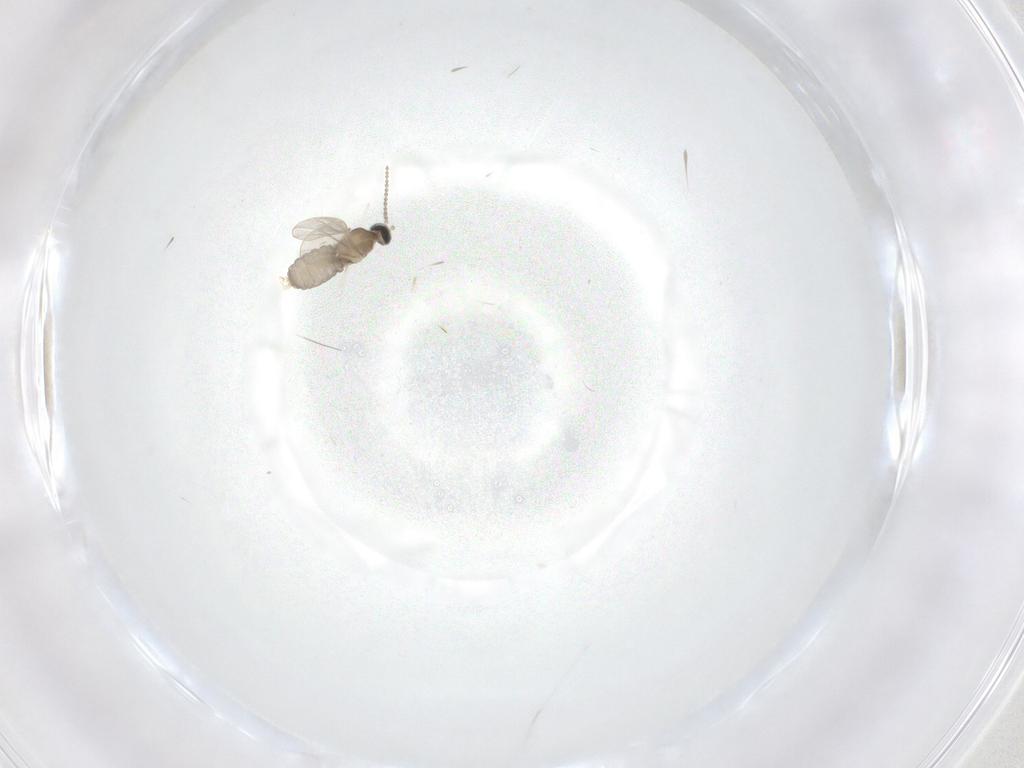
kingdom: Animalia
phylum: Arthropoda
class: Insecta
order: Diptera
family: Cecidomyiidae
